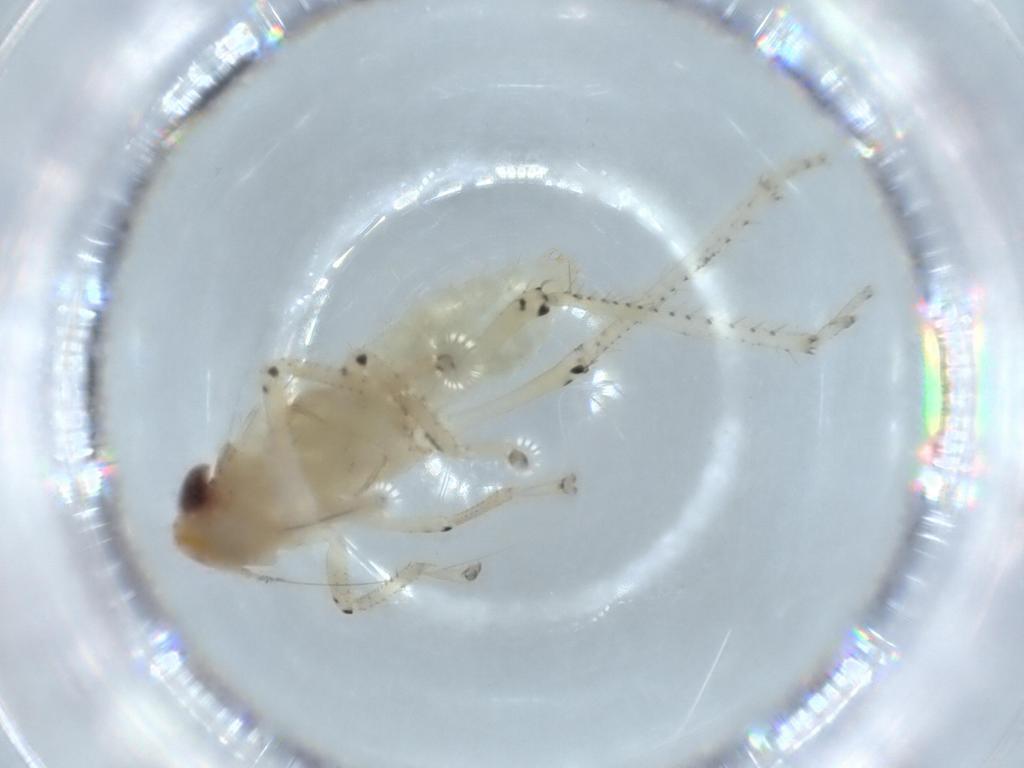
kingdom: Animalia
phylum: Arthropoda
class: Insecta
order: Hemiptera
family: Cicadellidae
